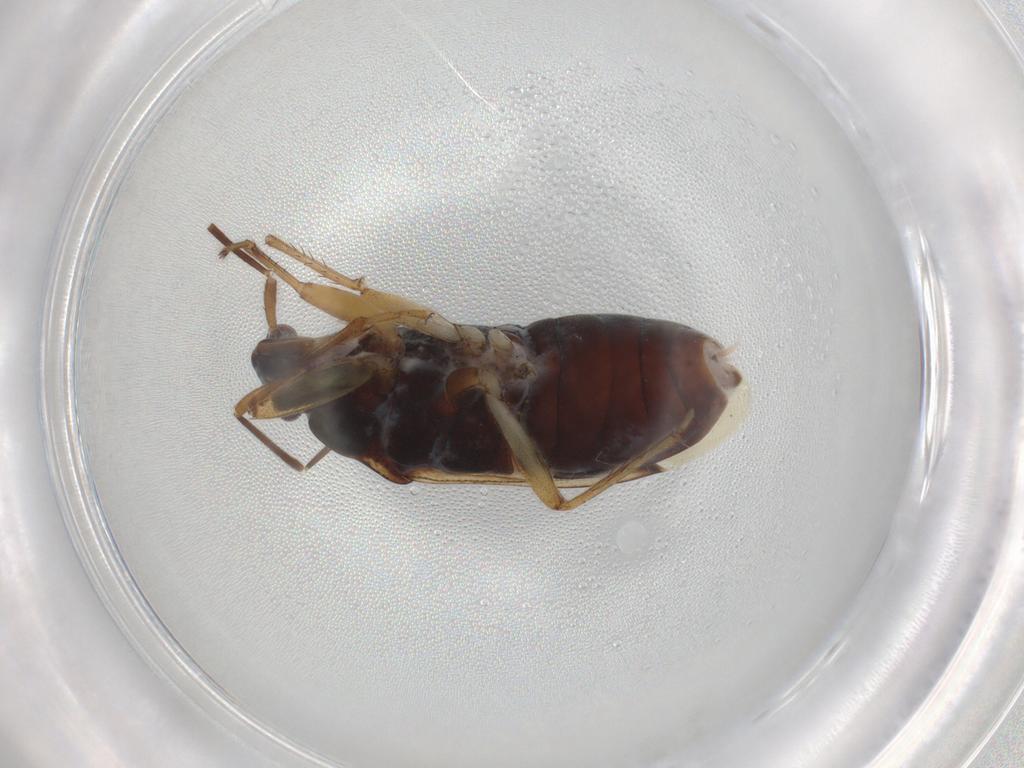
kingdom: Animalia
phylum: Arthropoda
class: Insecta
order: Hemiptera
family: Rhyparochromidae
